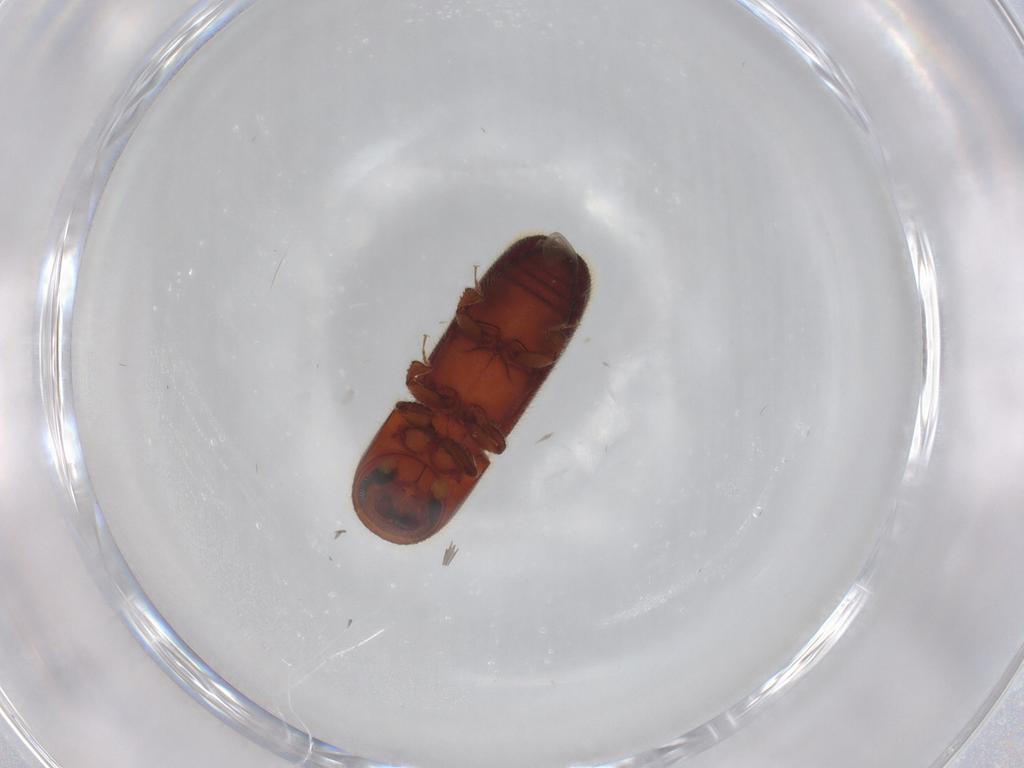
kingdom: Animalia
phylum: Arthropoda
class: Insecta
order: Coleoptera
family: Curculionidae
